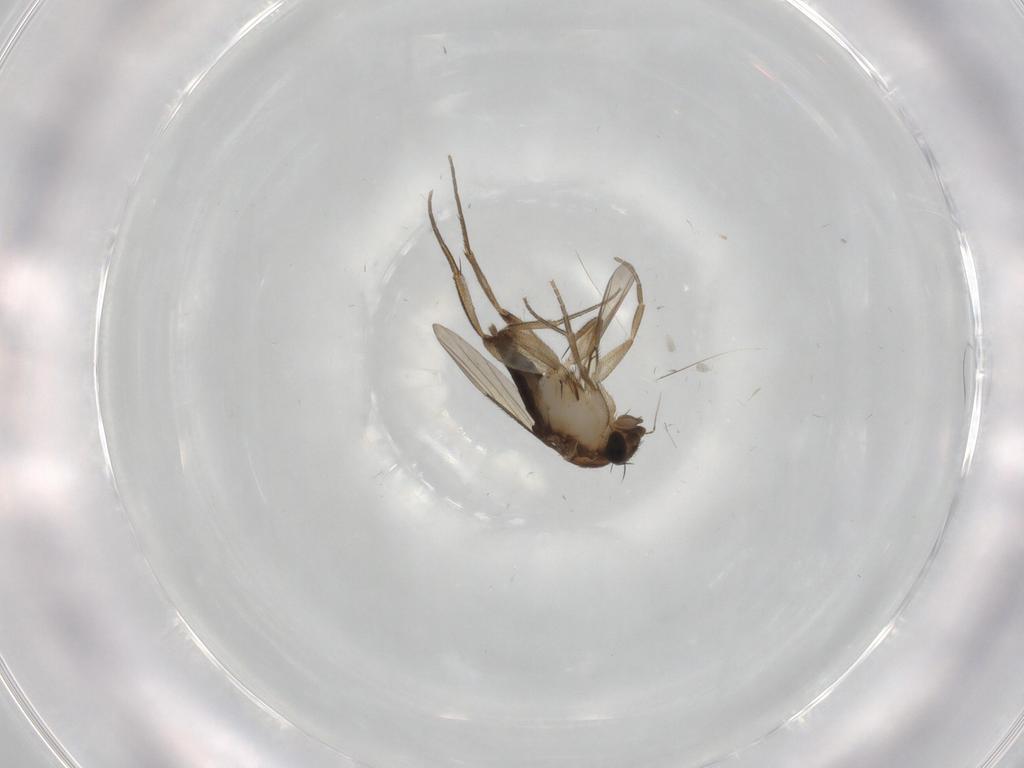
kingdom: Animalia
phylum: Arthropoda
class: Insecta
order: Diptera
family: Phoridae
